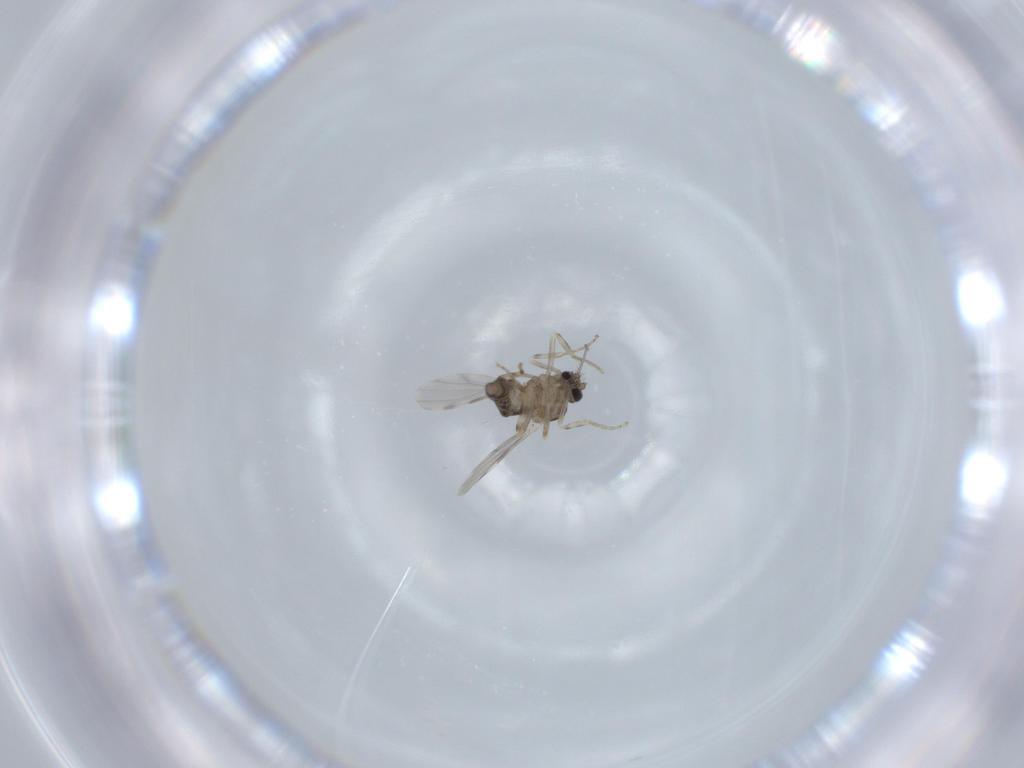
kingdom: Animalia
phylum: Arthropoda
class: Insecta
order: Diptera
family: Ceratopogonidae
